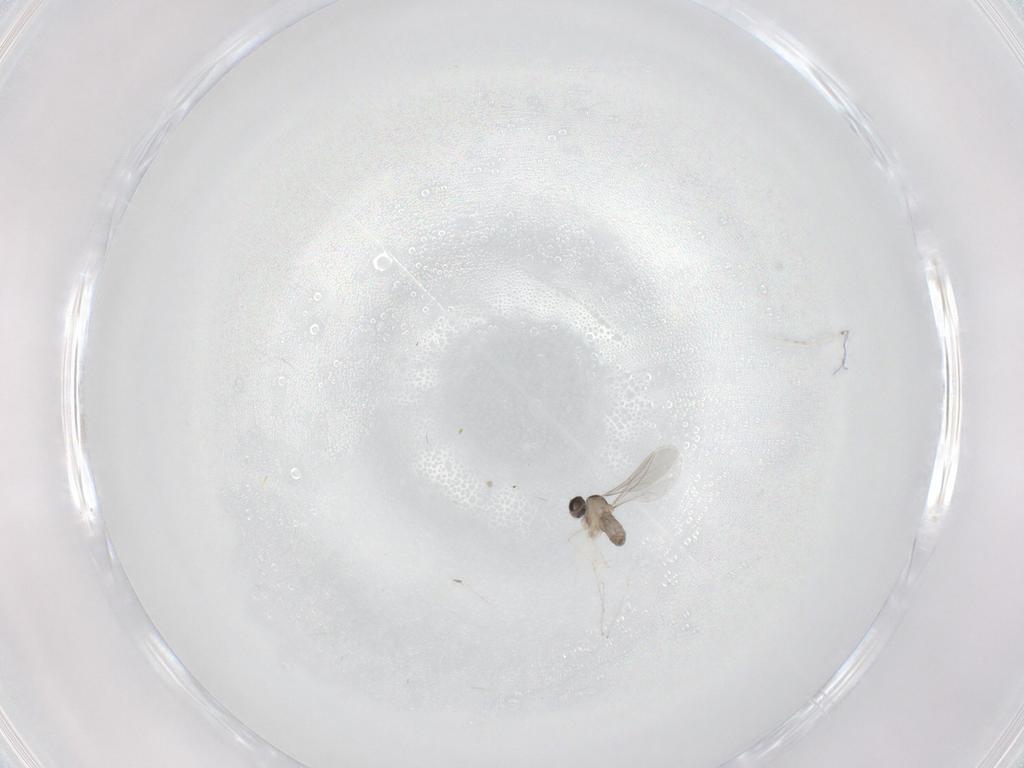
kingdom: Animalia
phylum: Arthropoda
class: Insecta
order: Diptera
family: Cecidomyiidae
